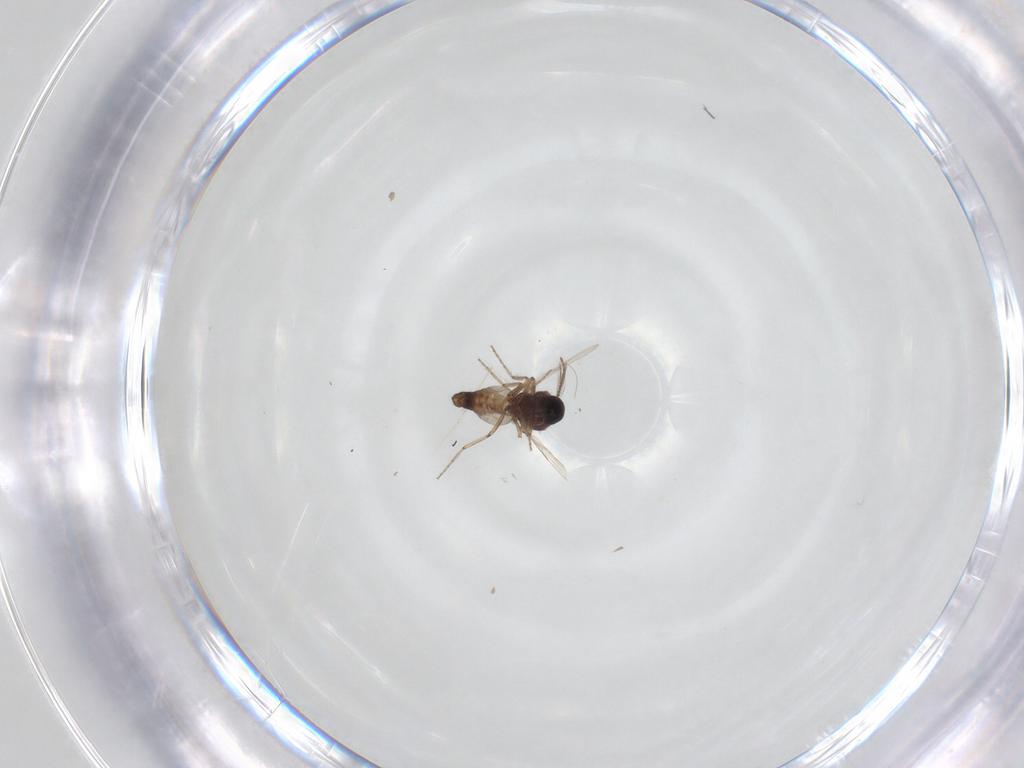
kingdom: Animalia
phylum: Arthropoda
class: Insecta
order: Diptera
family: Ceratopogonidae
